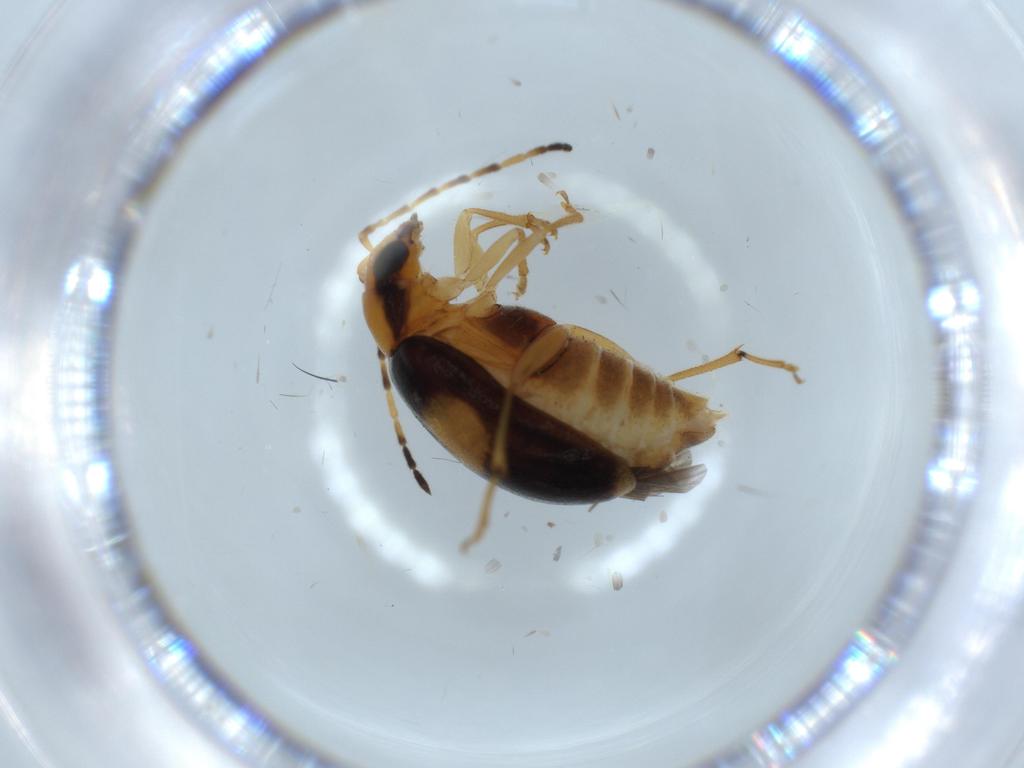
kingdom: Animalia
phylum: Arthropoda
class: Insecta
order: Coleoptera
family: Chrysomelidae
